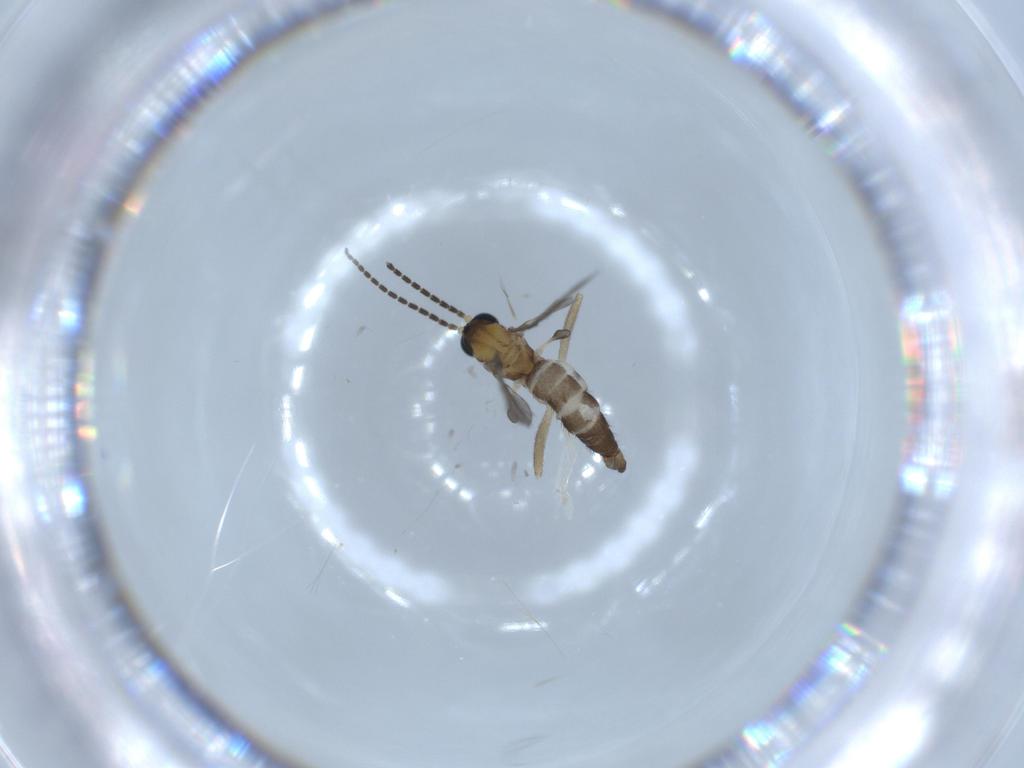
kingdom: Animalia
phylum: Arthropoda
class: Insecta
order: Diptera
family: Sciaridae
